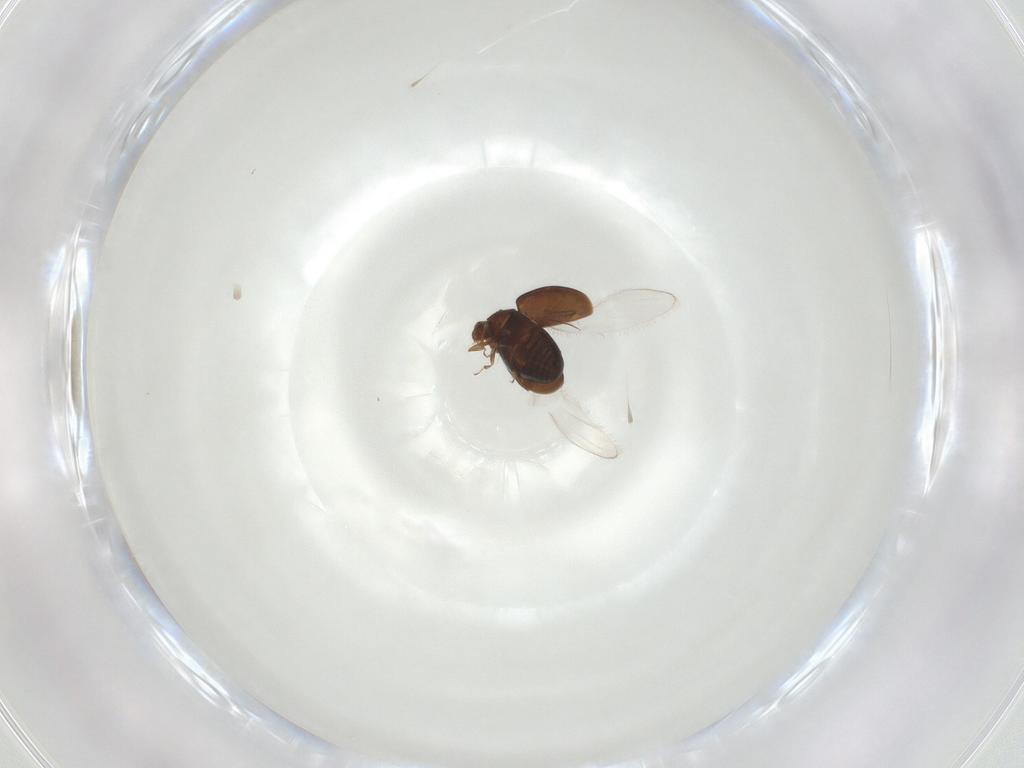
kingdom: Animalia
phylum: Arthropoda
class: Insecta
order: Coleoptera
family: Corylophidae
